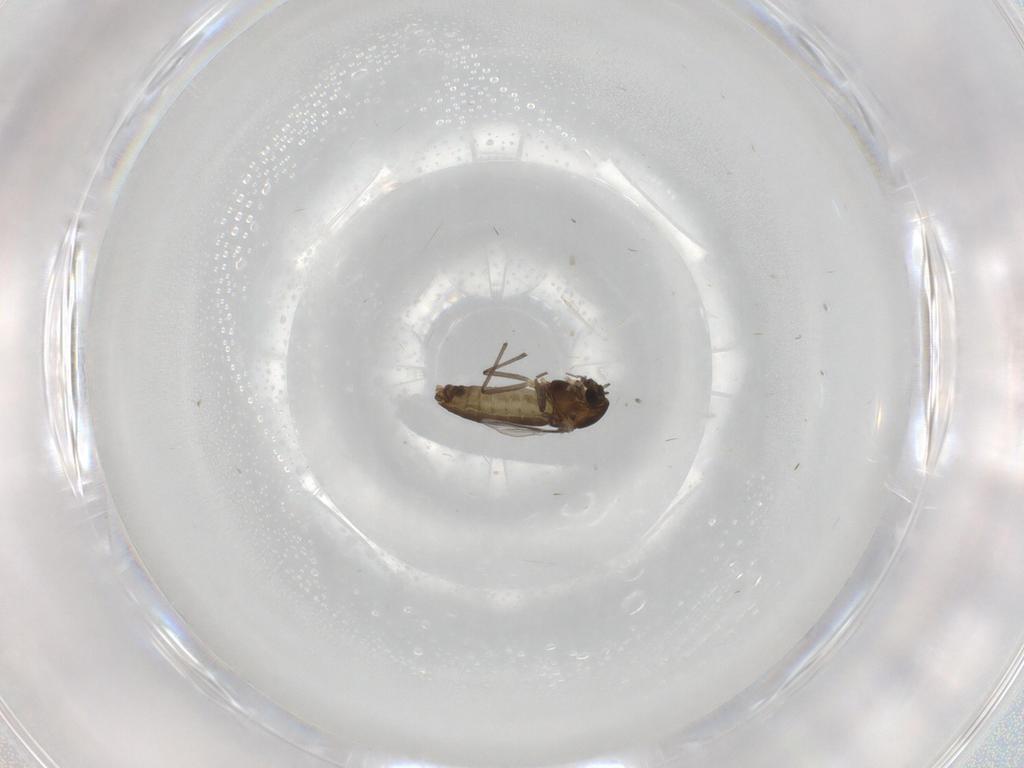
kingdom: Animalia
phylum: Arthropoda
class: Insecta
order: Diptera
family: Chironomidae
